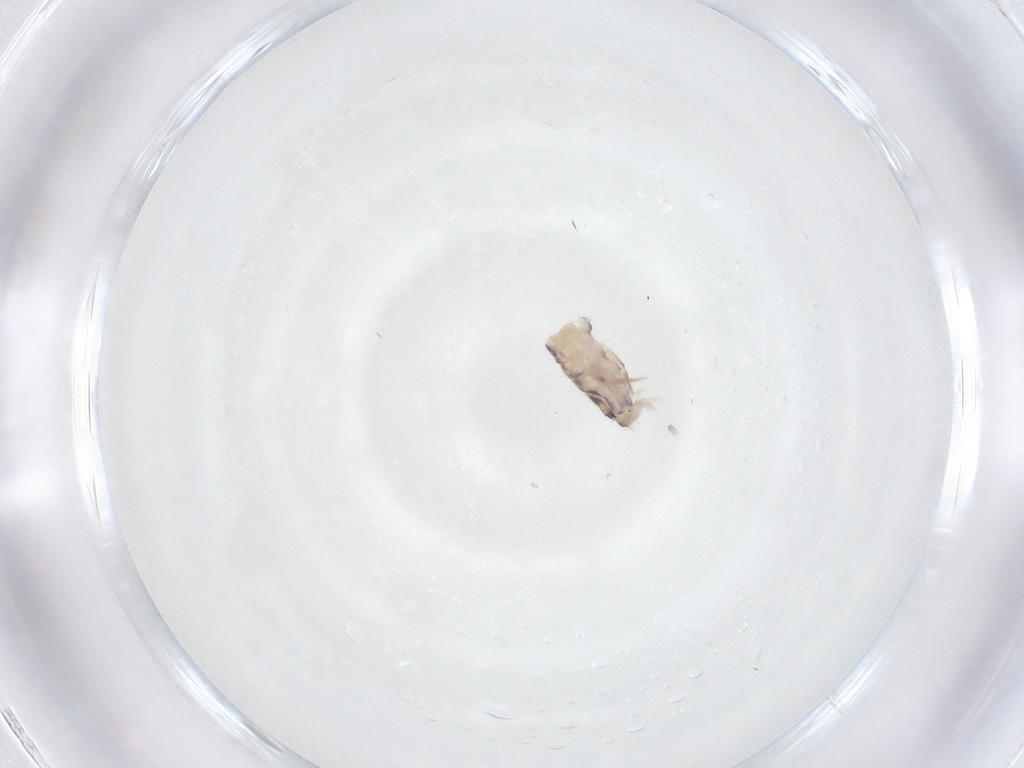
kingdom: Animalia
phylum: Arthropoda
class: Collembola
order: Entomobryomorpha
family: Entomobryidae
